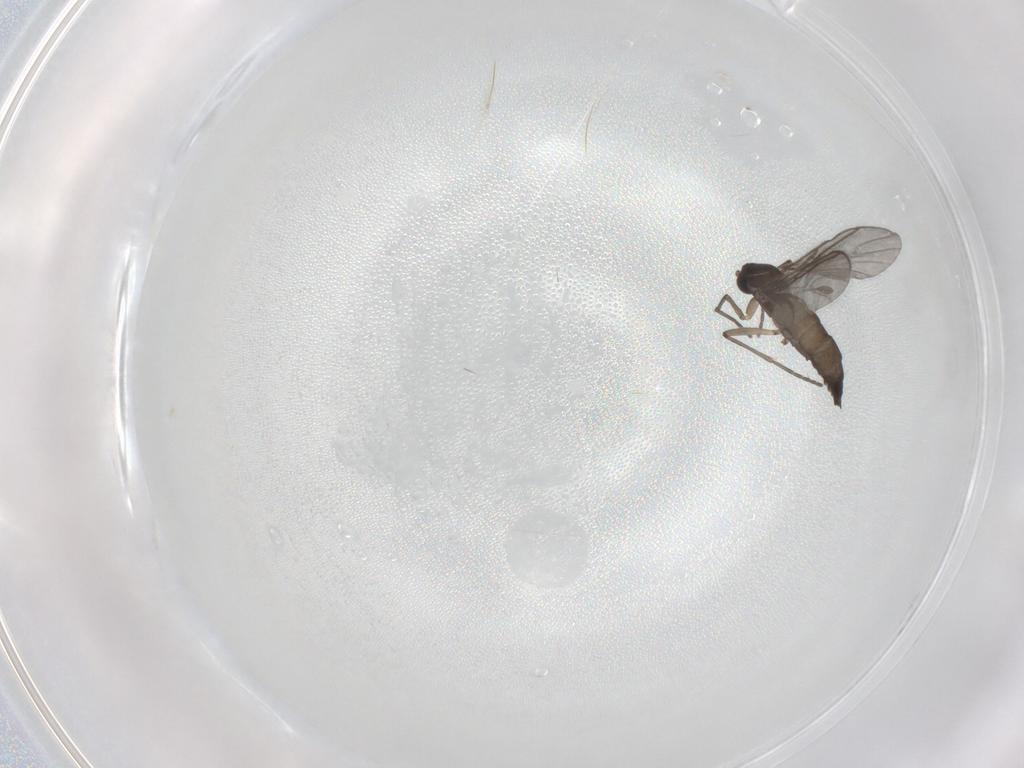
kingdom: Animalia
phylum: Arthropoda
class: Insecta
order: Diptera
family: Sciaridae
